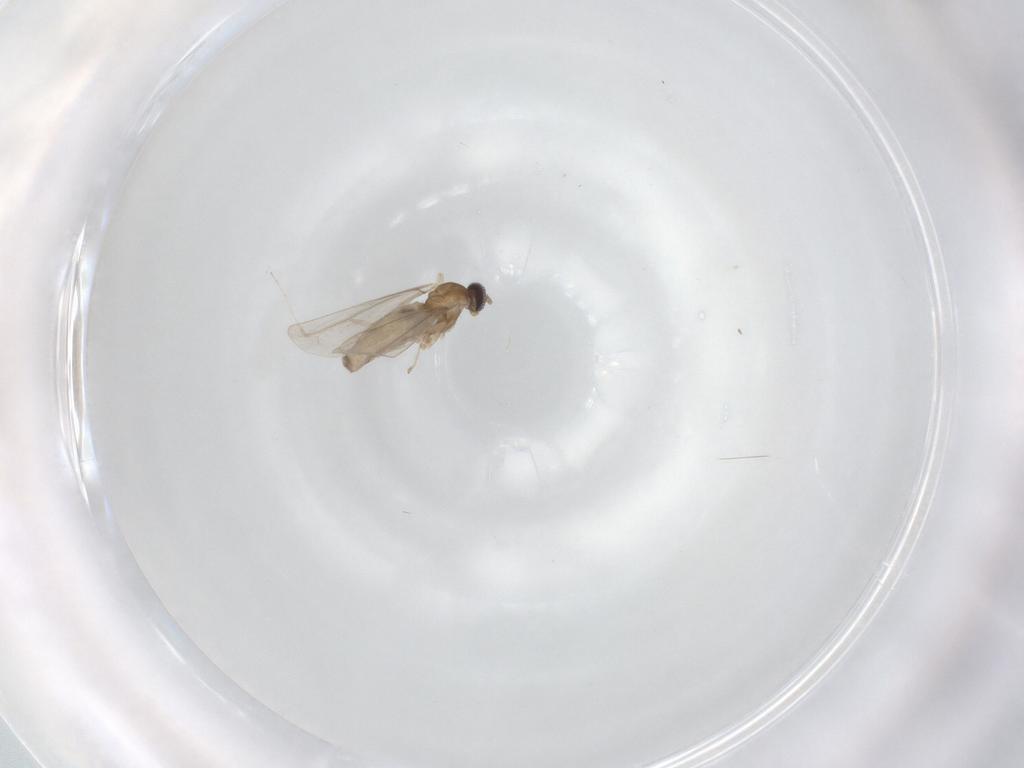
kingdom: Animalia
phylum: Arthropoda
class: Insecta
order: Diptera
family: Cecidomyiidae
